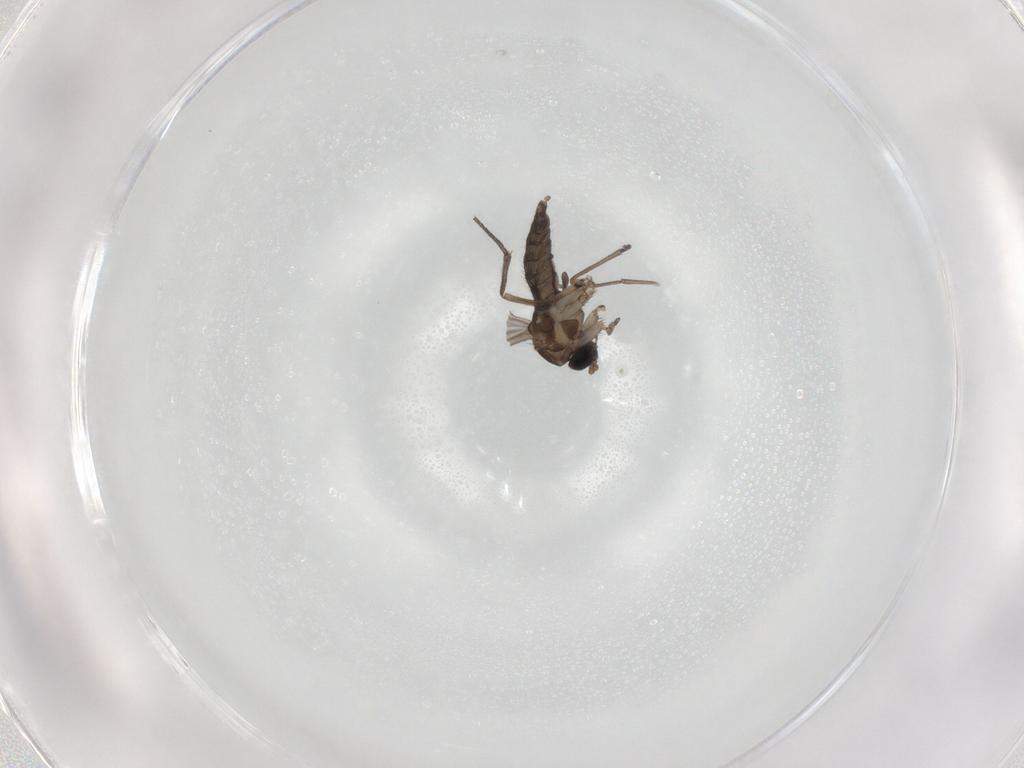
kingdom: Animalia
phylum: Arthropoda
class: Insecta
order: Diptera
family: Sciaridae
